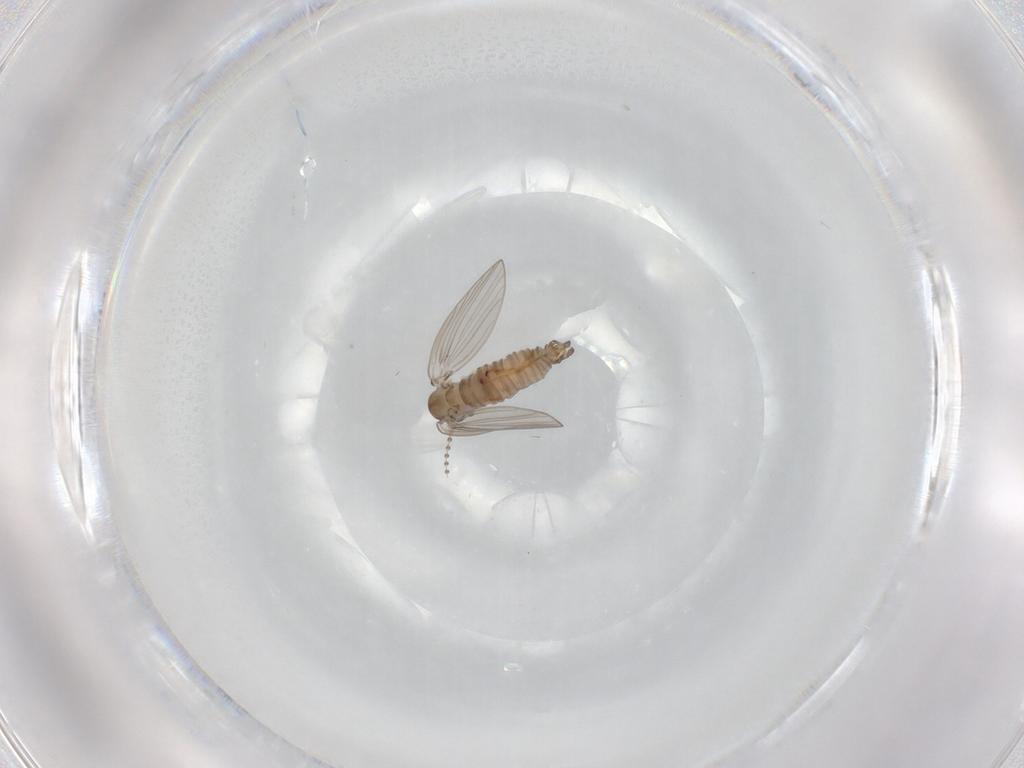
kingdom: Animalia
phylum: Arthropoda
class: Insecta
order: Diptera
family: Psychodidae
